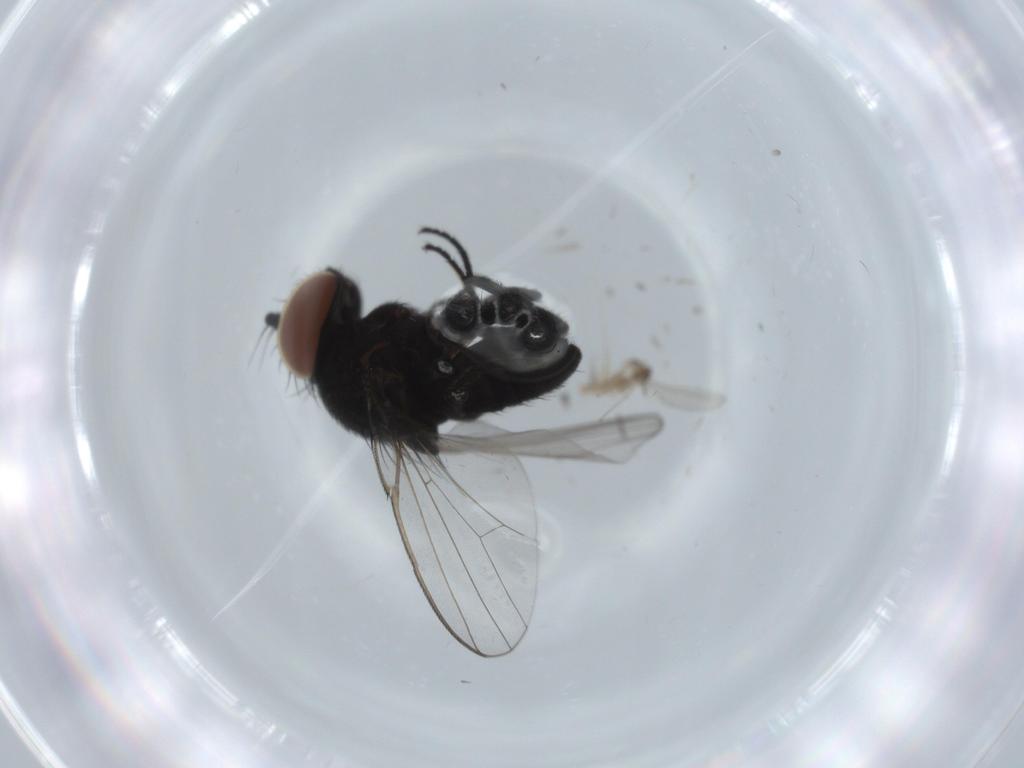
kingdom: Animalia
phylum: Arthropoda
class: Insecta
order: Diptera
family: Cecidomyiidae
